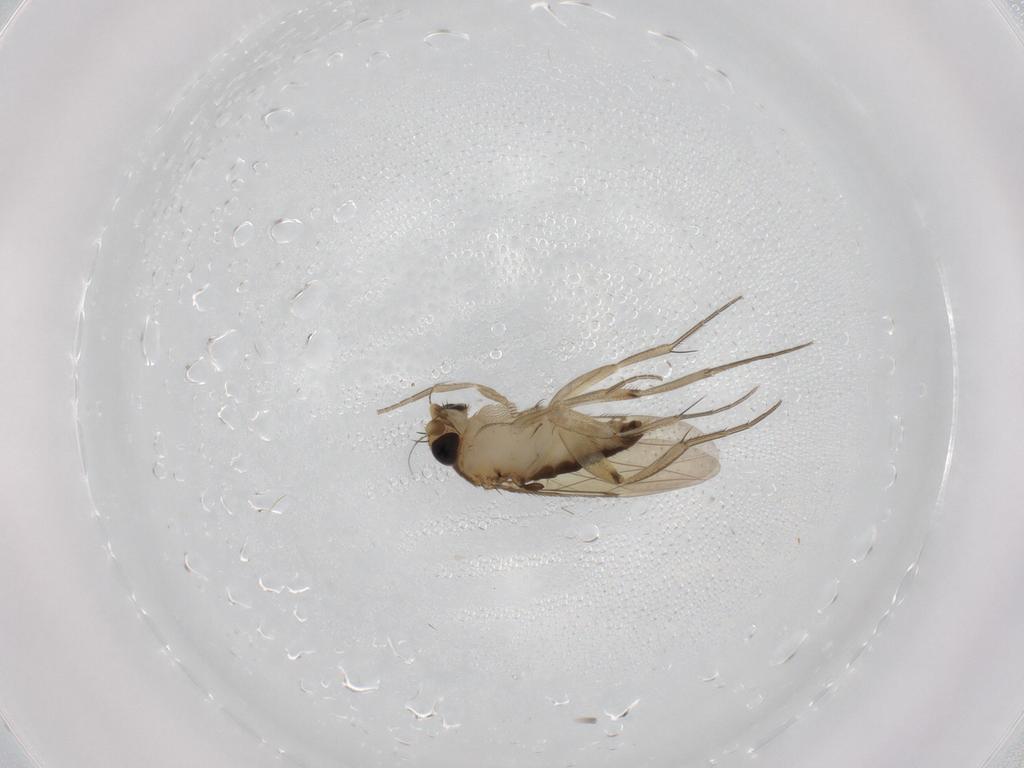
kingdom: Animalia
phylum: Arthropoda
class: Insecta
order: Diptera
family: Phoridae
